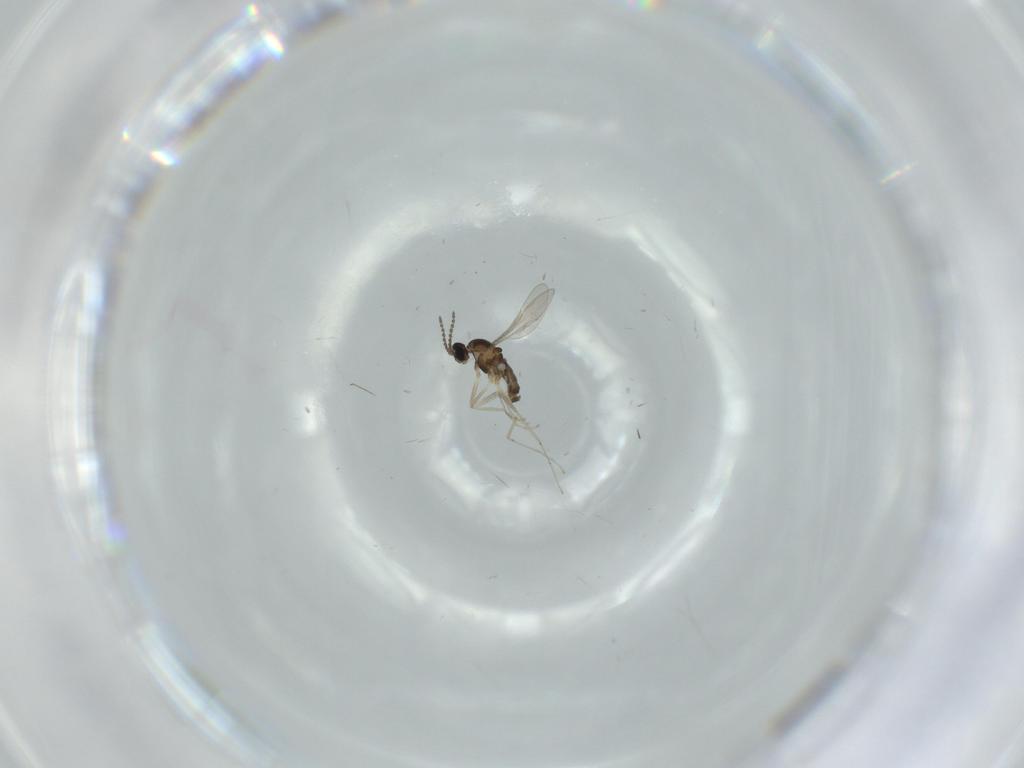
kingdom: Animalia
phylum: Arthropoda
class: Insecta
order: Diptera
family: Cecidomyiidae
